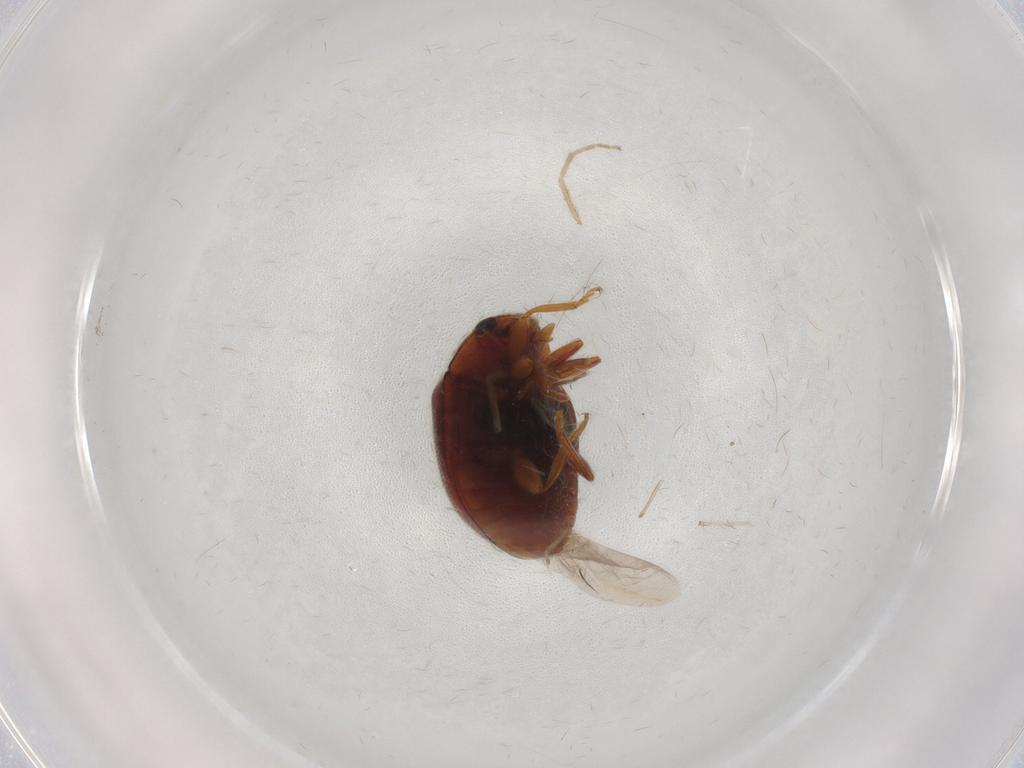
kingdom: Animalia
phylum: Arthropoda
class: Insecta
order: Coleoptera
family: Coccinellidae
